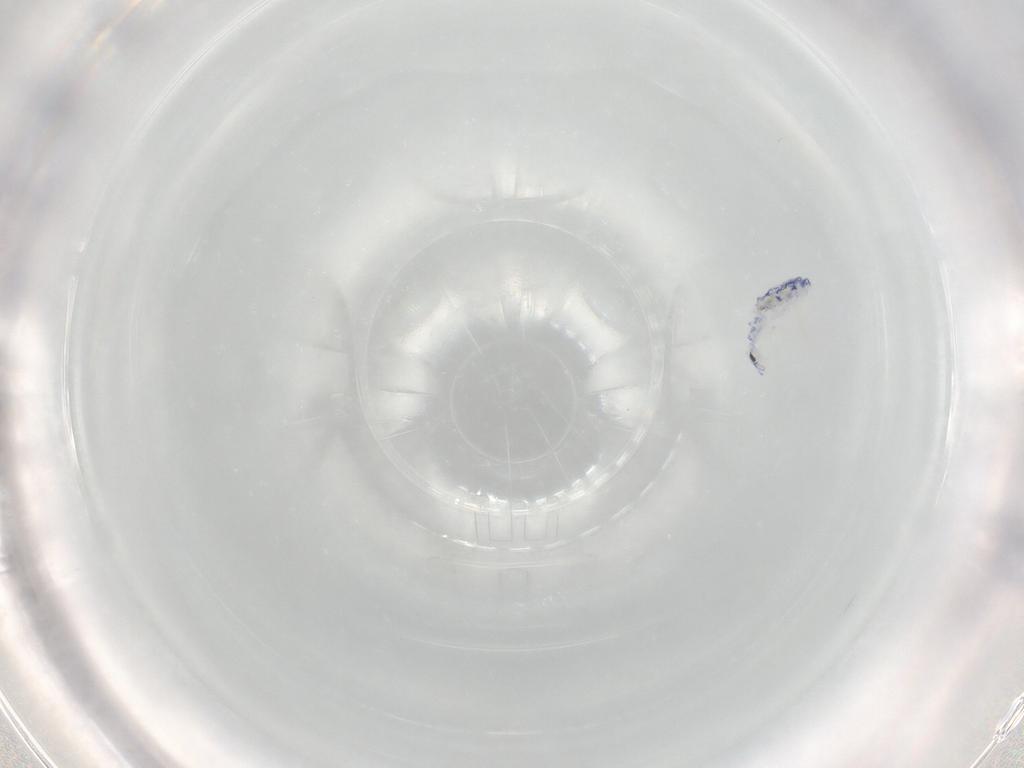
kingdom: Animalia
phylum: Arthropoda
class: Collembola
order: Entomobryomorpha
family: Entomobryidae
